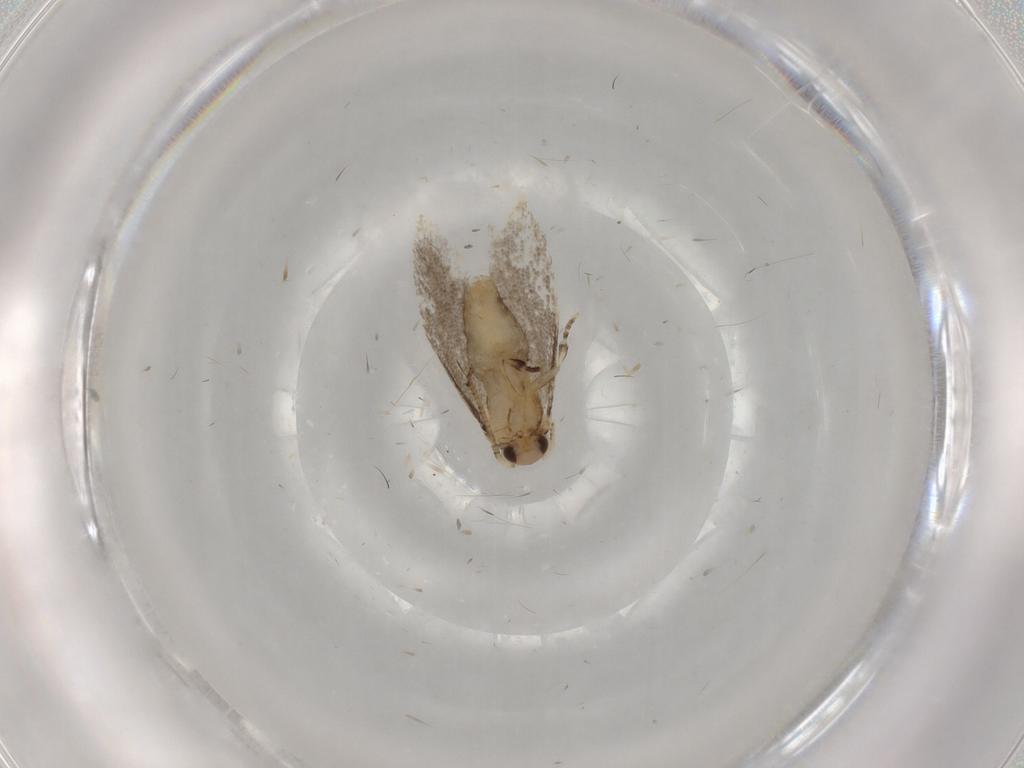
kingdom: Animalia
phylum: Arthropoda
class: Insecta
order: Lepidoptera
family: Tineidae
